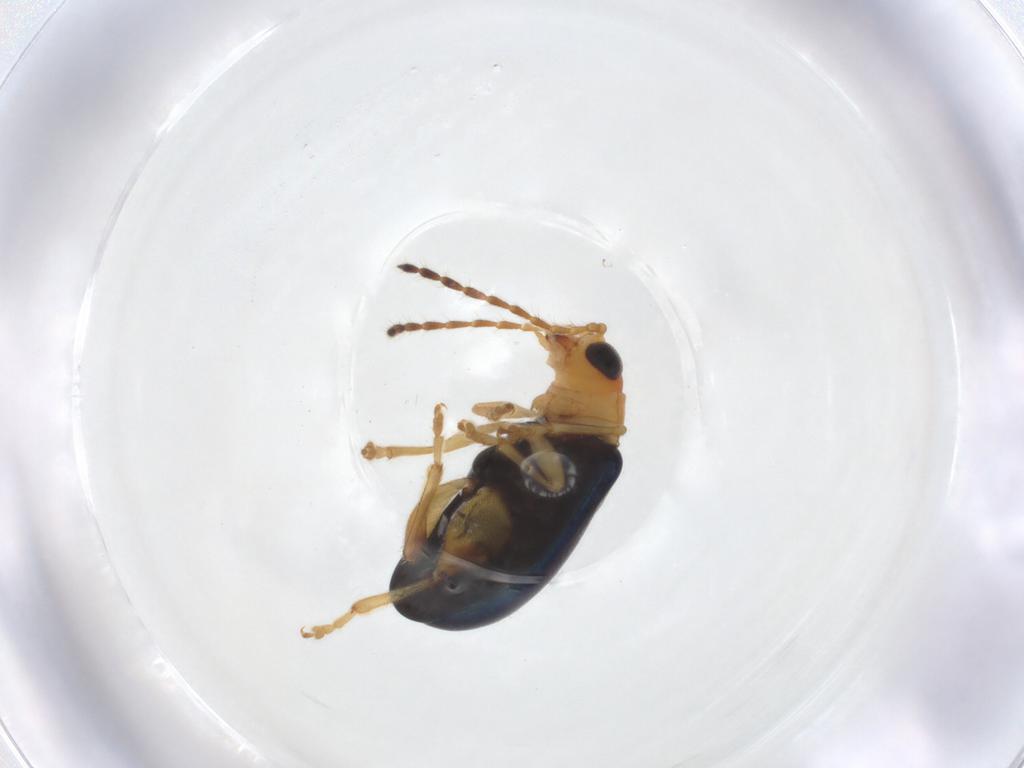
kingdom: Animalia
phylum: Arthropoda
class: Insecta
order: Coleoptera
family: Chrysomelidae
